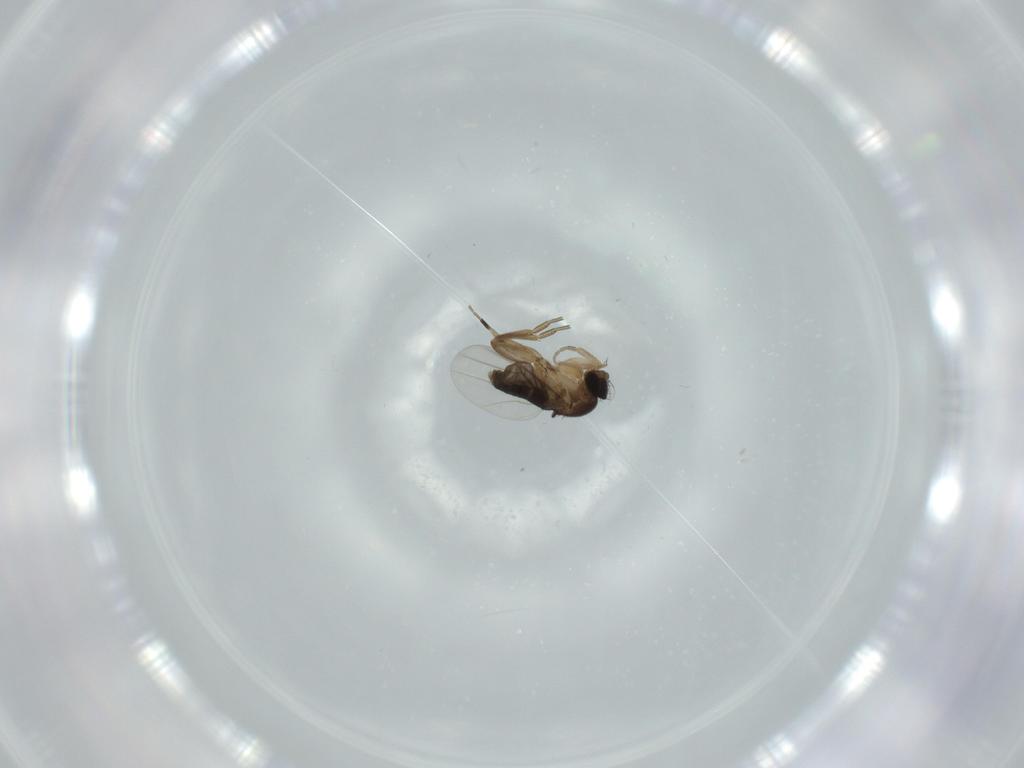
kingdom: Animalia
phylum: Arthropoda
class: Insecta
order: Diptera
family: Phoridae
